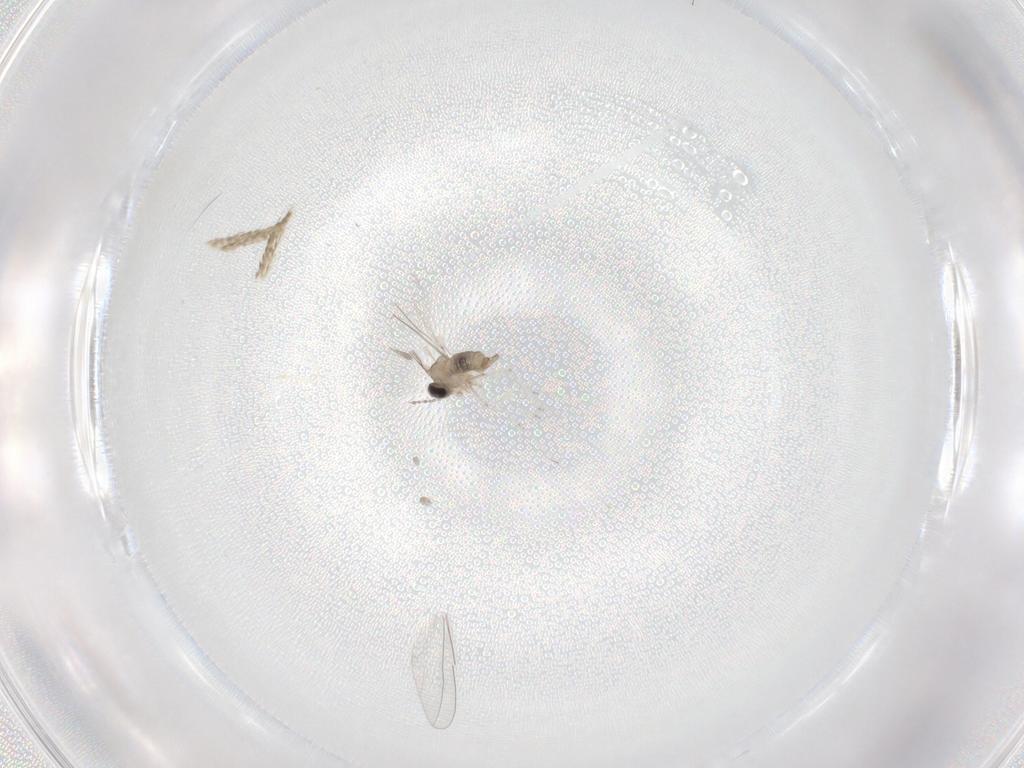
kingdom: Animalia
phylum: Arthropoda
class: Insecta
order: Diptera
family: Cecidomyiidae
